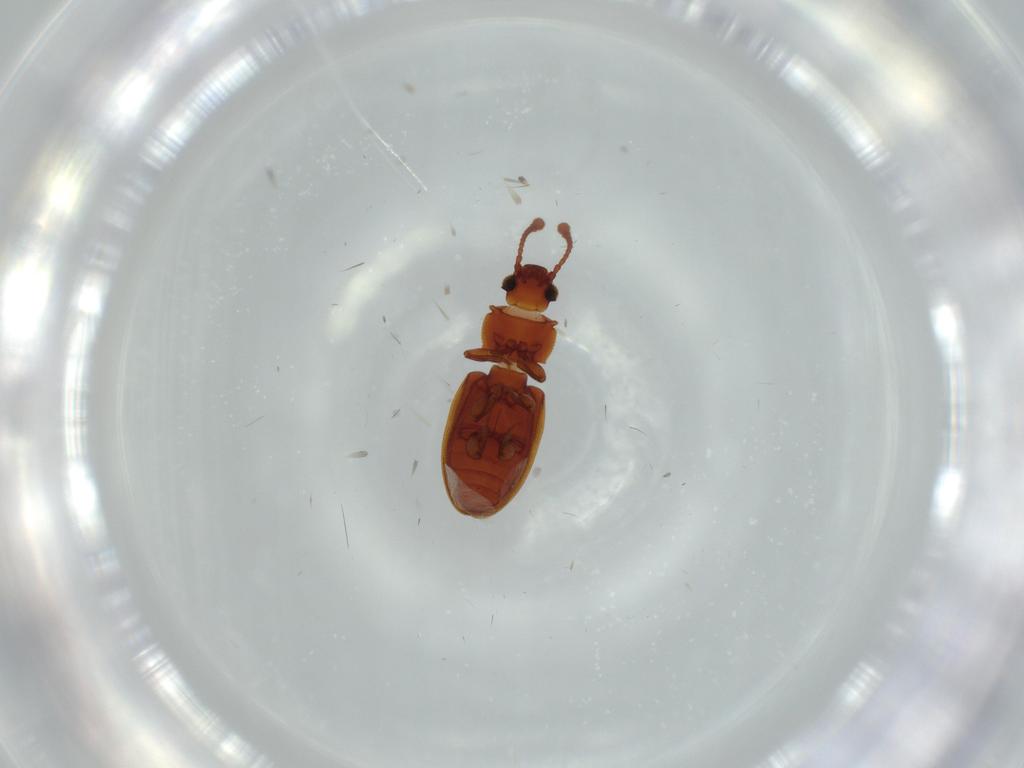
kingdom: Animalia
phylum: Arthropoda
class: Insecta
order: Coleoptera
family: Silvanidae
